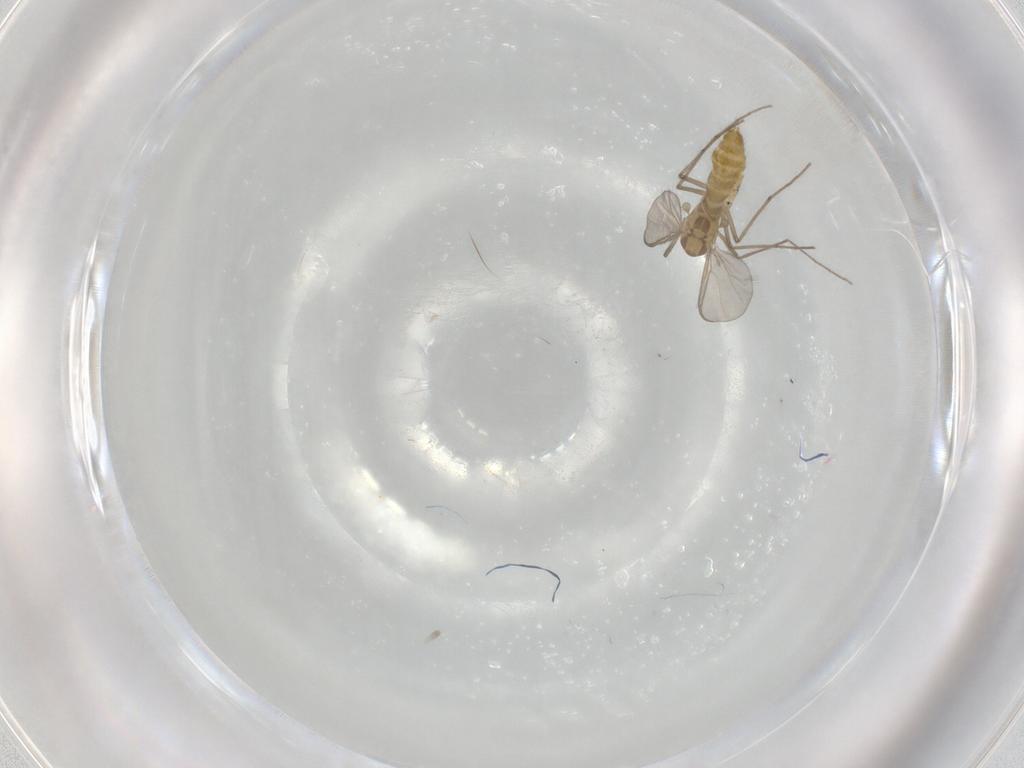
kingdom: Animalia
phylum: Arthropoda
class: Insecta
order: Diptera
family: Chironomidae
